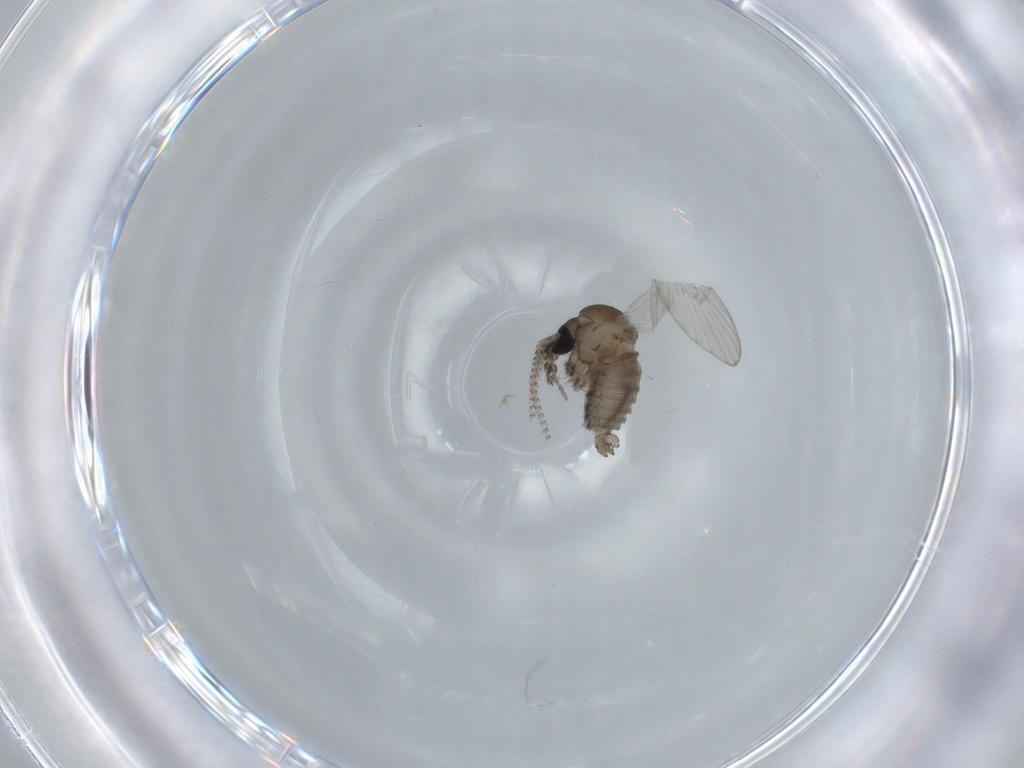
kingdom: Animalia
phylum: Arthropoda
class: Insecta
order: Diptera
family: Psychodidae
